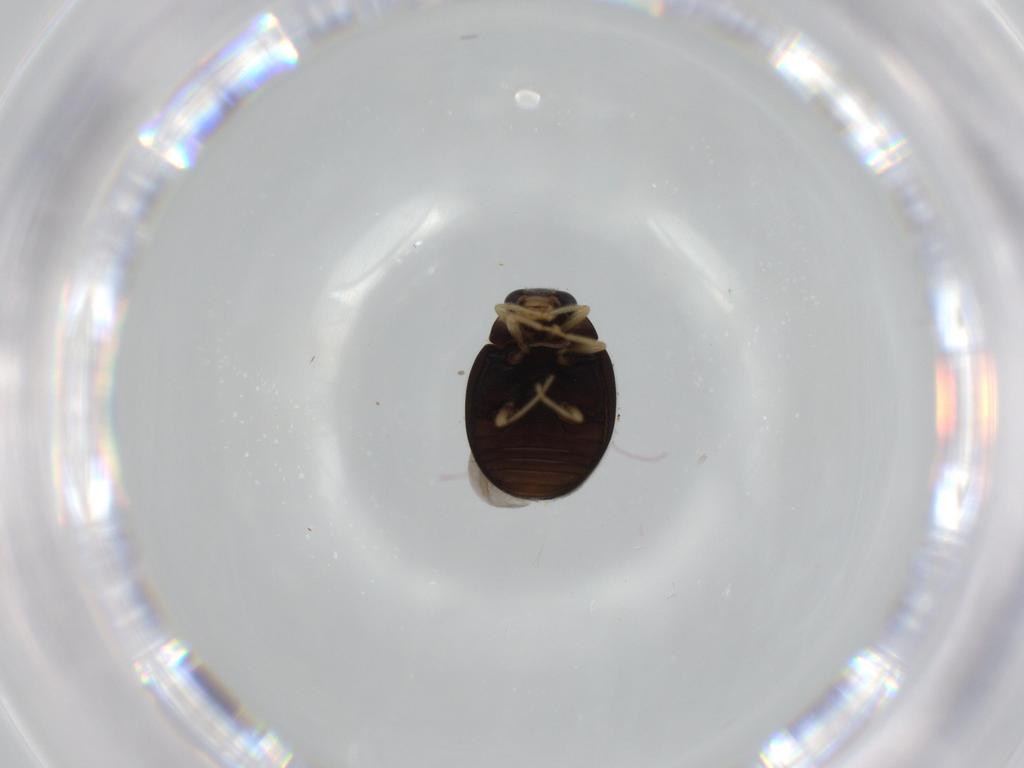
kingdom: Animalia
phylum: Arthropoda
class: Insecta
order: Coleoptera
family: Coccinellidae
